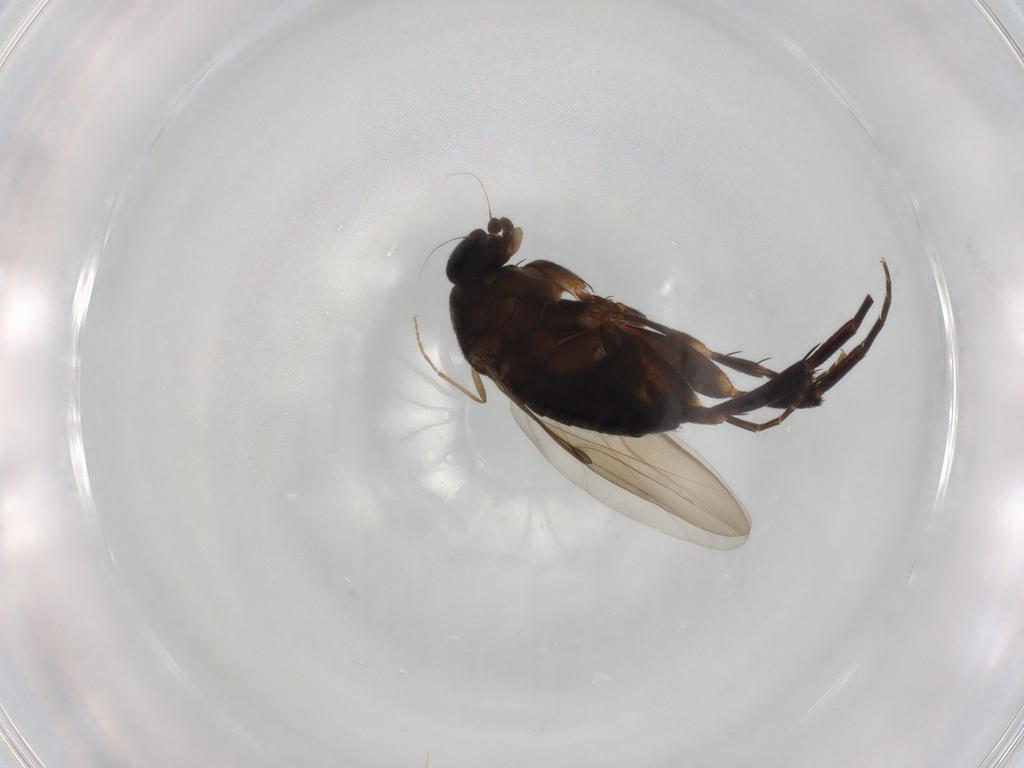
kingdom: Animalia
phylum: Arthropoda
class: Insecta
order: Diptera
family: Phoridae
